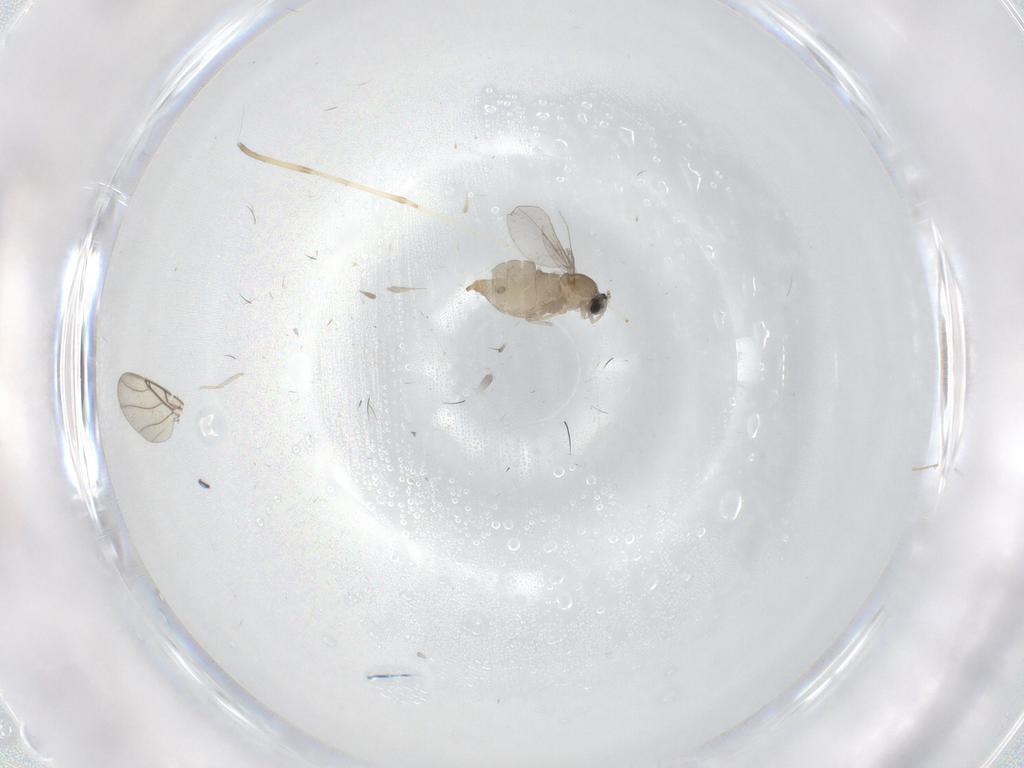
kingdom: Animalia
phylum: Arthropoda
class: Insecta
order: Diptera
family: Cecidomyiidae
